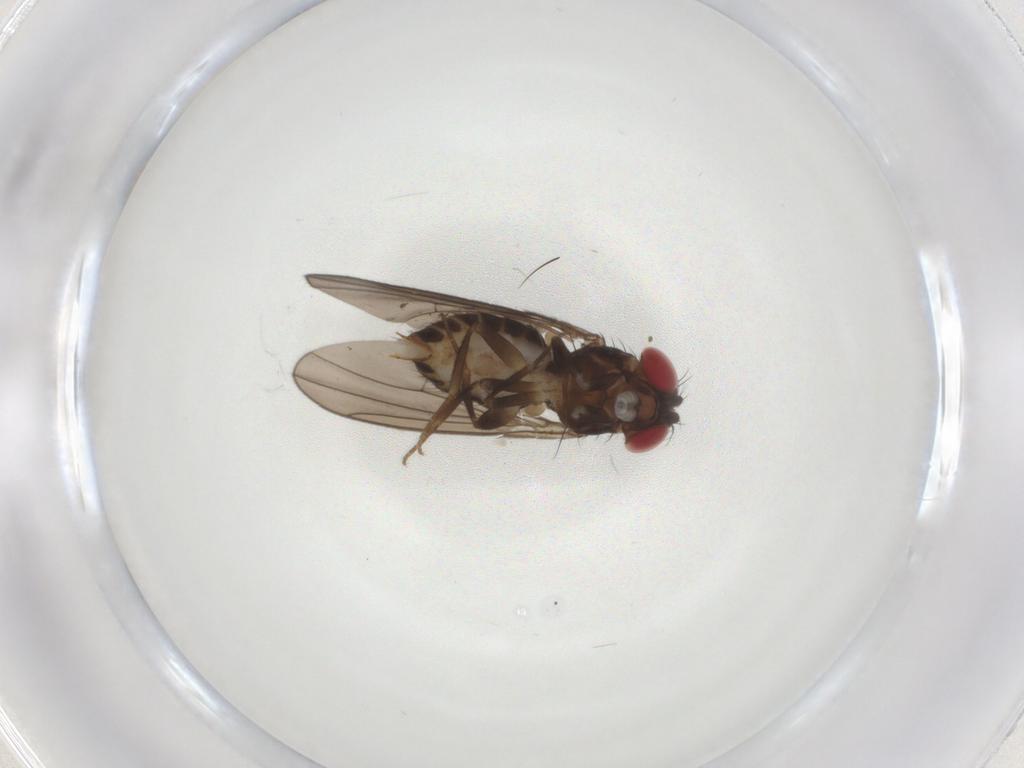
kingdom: Animalia
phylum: Arthropoda
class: Insecta
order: Diptera
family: Drosophilidae
